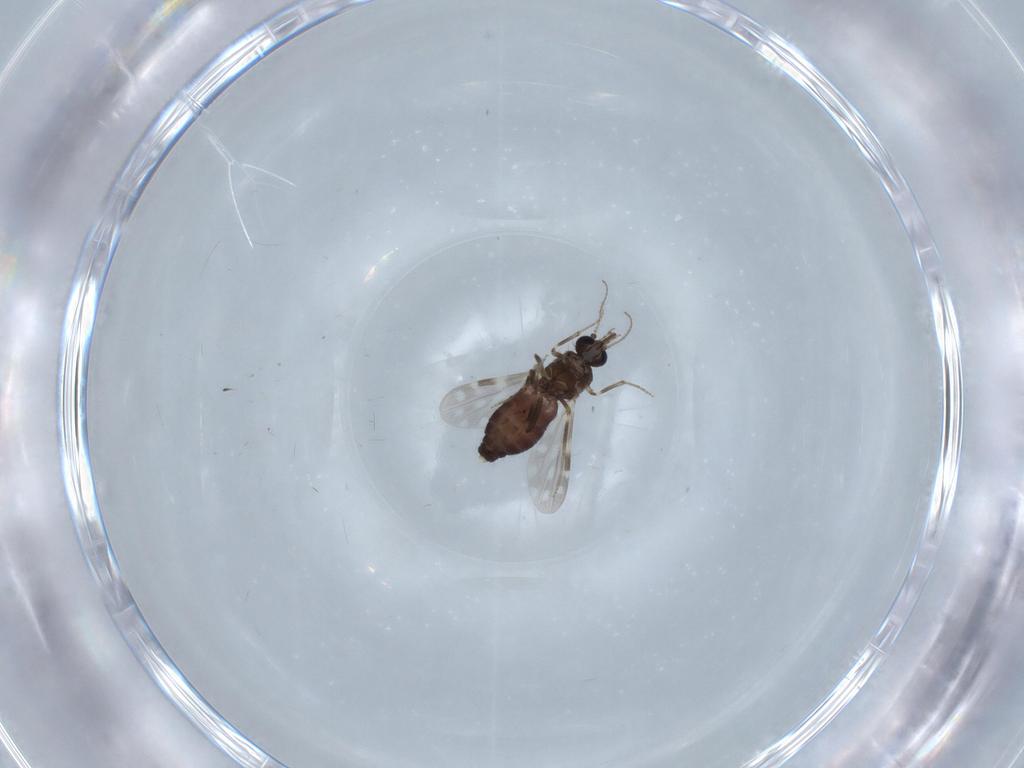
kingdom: Animalia
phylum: Arthropoda
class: Insecta
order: Diptera
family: Ceratopogonidae
